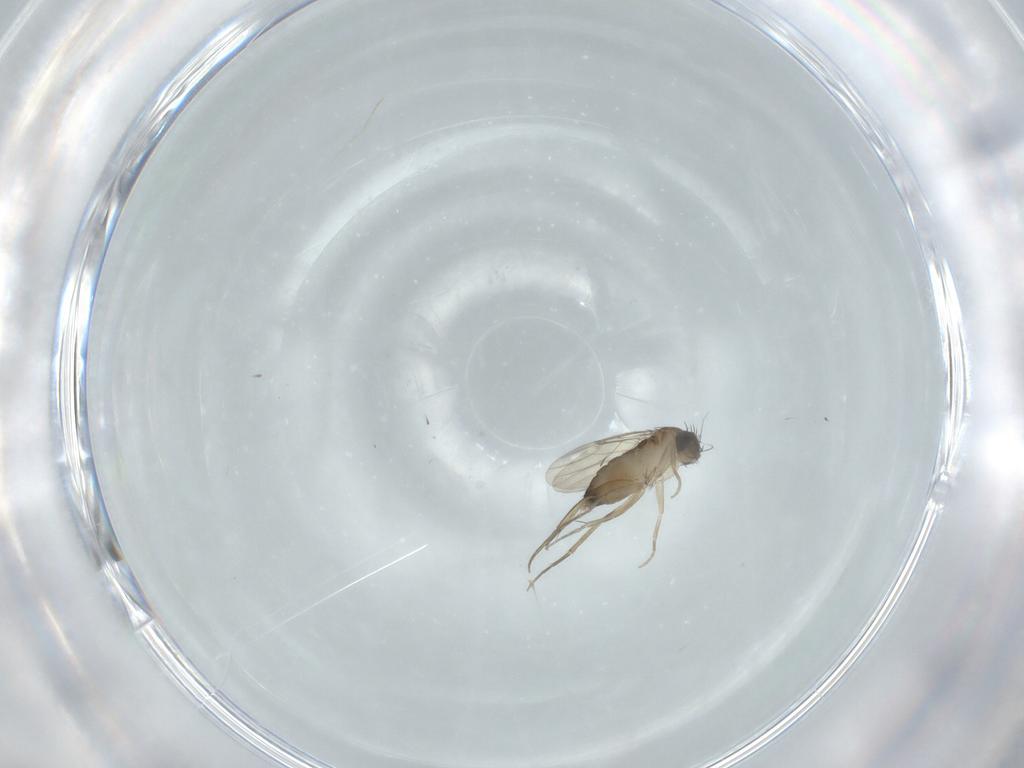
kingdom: Animalia
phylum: Arthropoda
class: Insecta
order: Diptera
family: Phoridae
